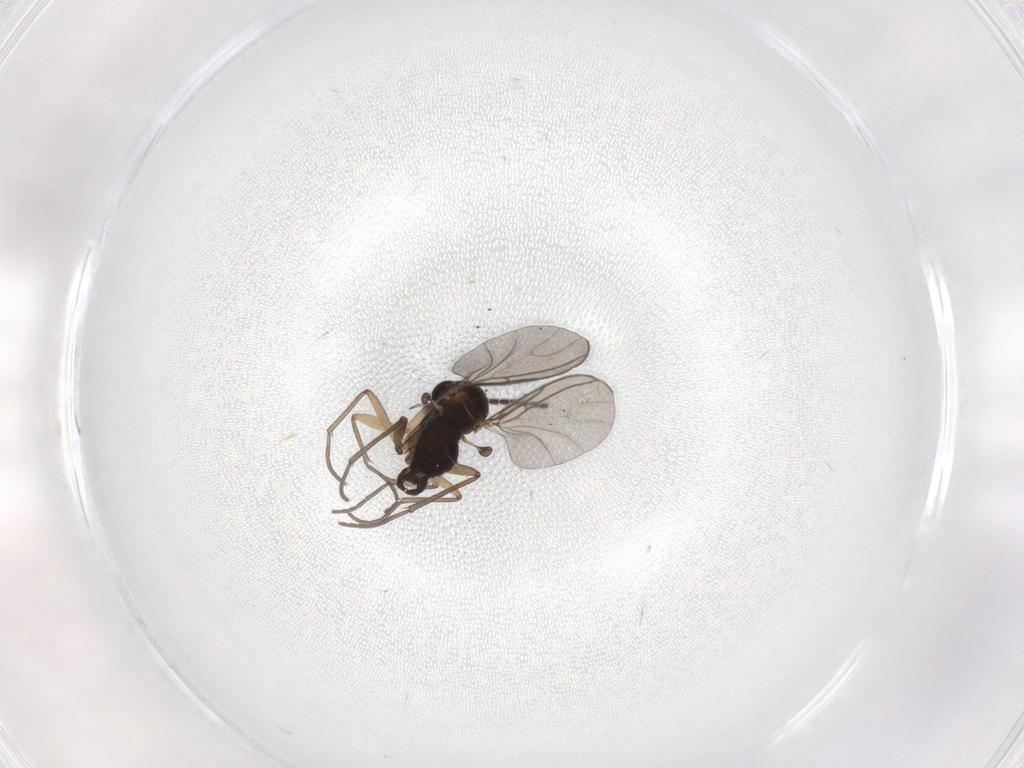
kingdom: Animalia
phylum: Arthropoda
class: Insecta
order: Diptera
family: Sciaridae
